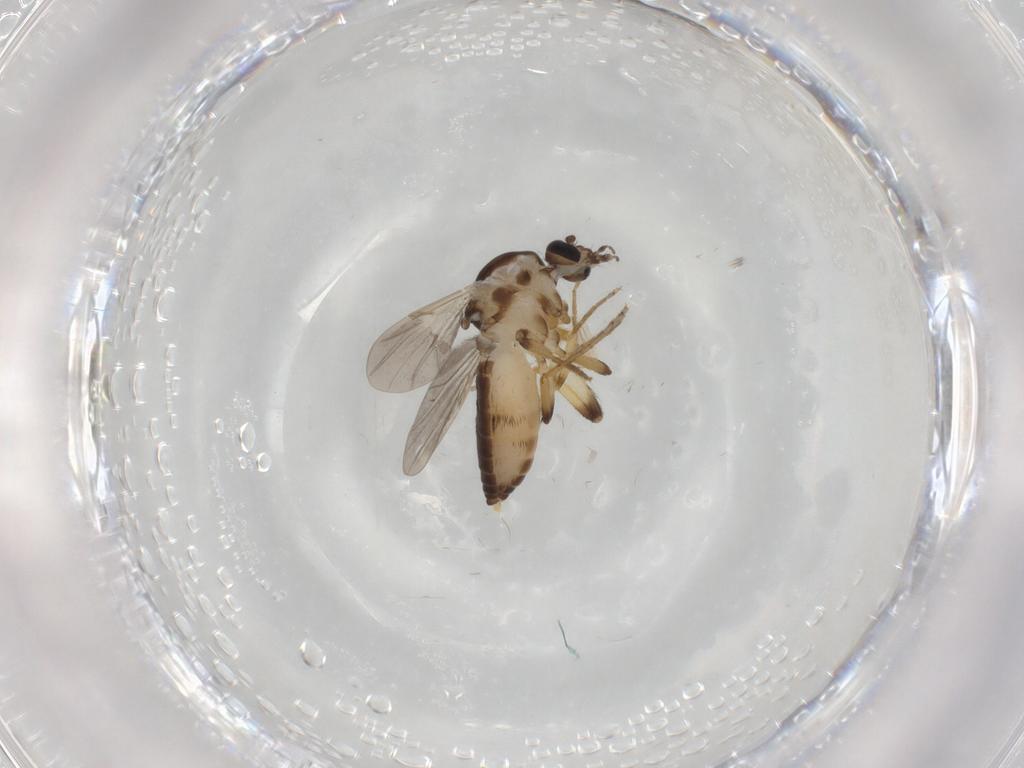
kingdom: Animalia
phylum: Arthropoda
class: Insecta
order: Diptera
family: Ceratopogonidae
